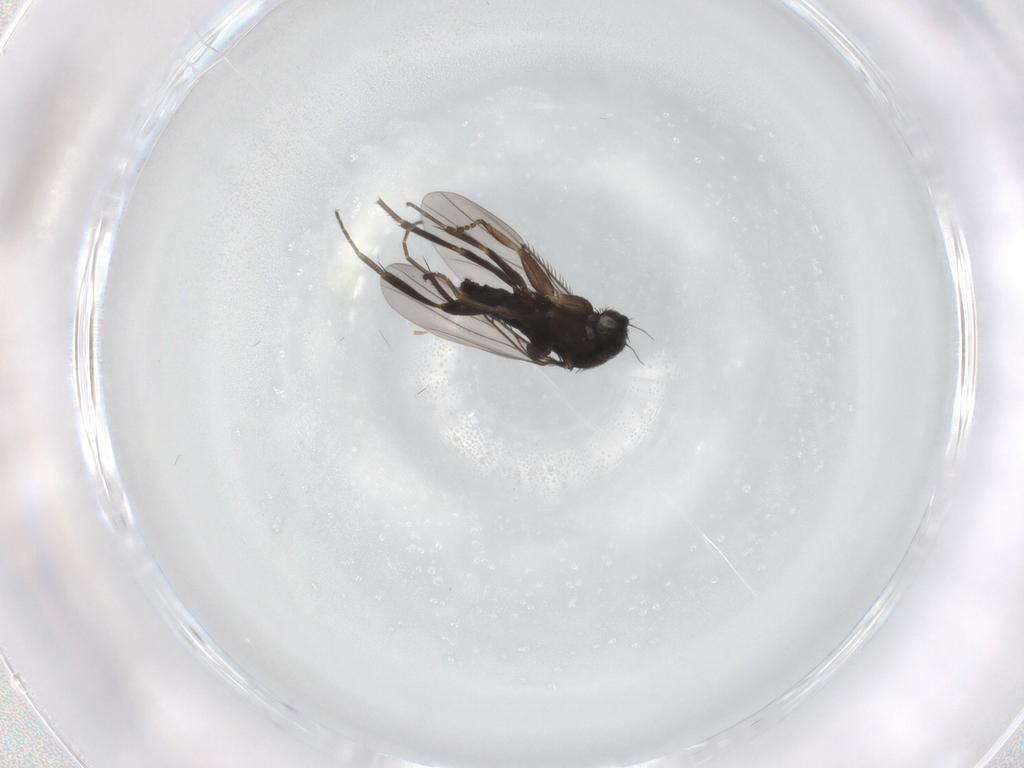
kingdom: Animalia
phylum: Arthropoda
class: Insecta
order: Diptera
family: Phoridae
